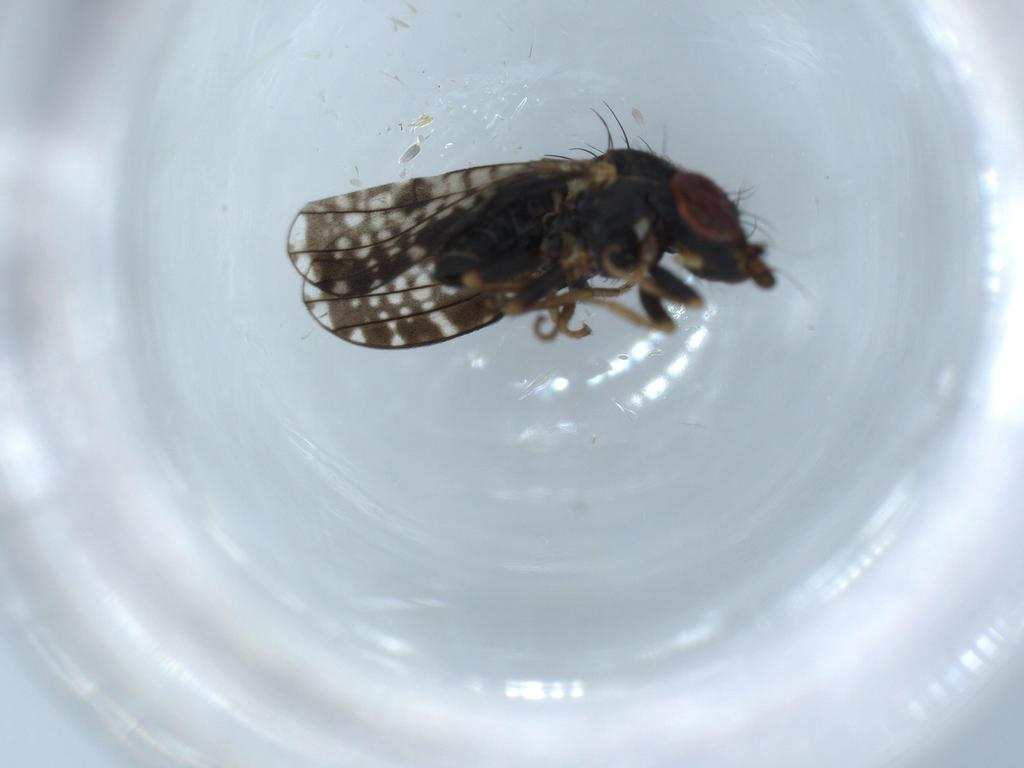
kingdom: Animalia
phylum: Arthropoda
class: Insecta
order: Diptera
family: Sciaridae
